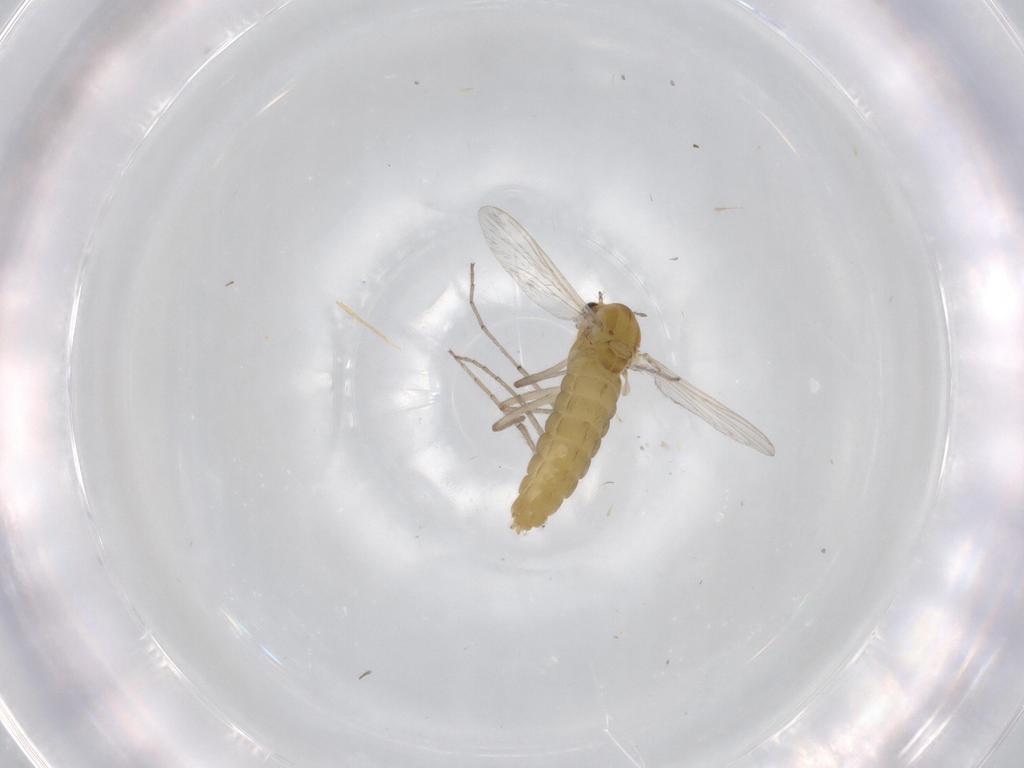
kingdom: Animalia
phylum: Arthropoda
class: Insecta
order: Diptera
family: Chironomidae
